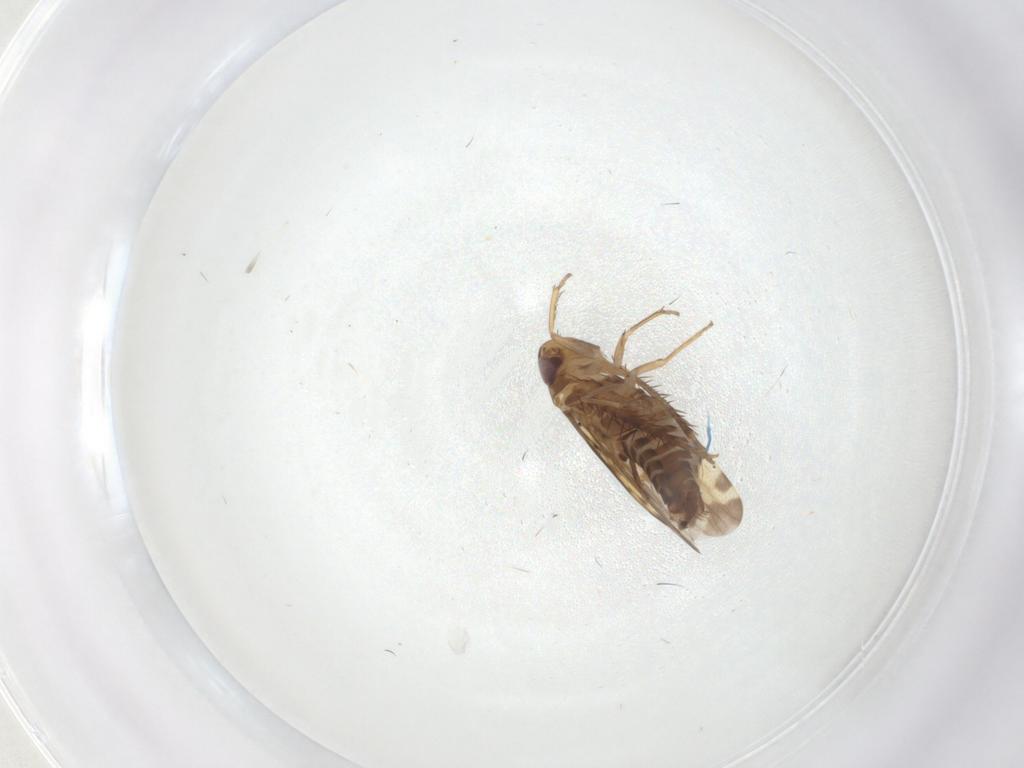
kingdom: Animalia
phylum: Arthropoda
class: Insecta
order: Hemiptera
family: Cicadellidae
